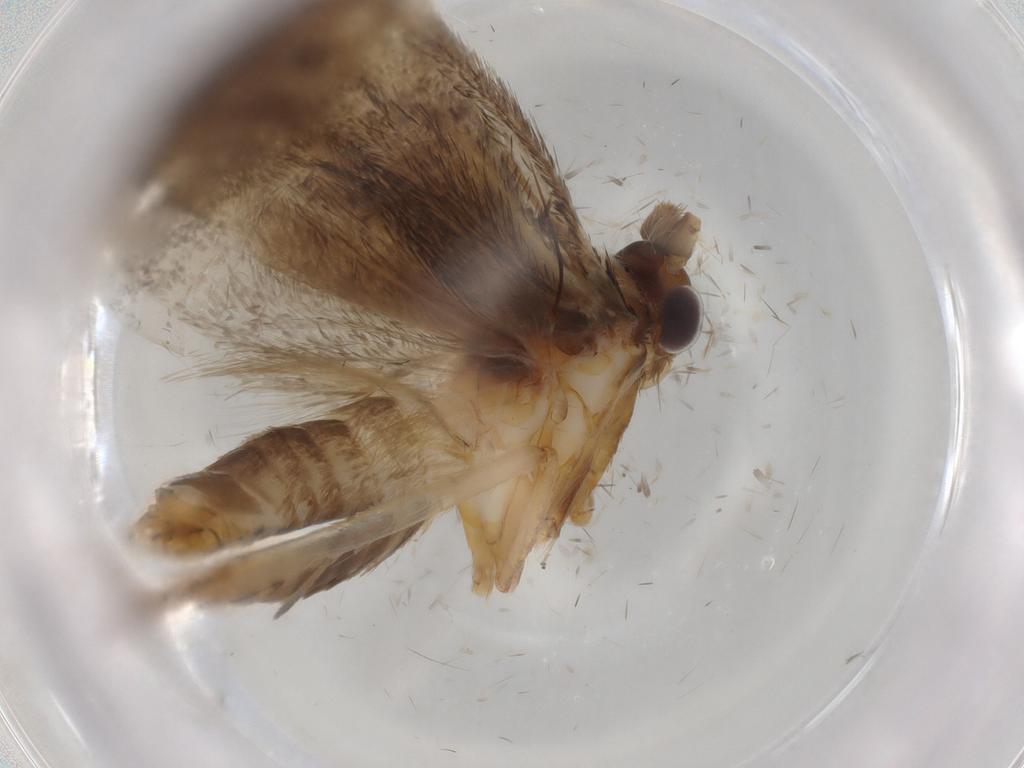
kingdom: Animalia
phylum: Arthropoda
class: Insecta
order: Lepidoptera
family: Adelidae
